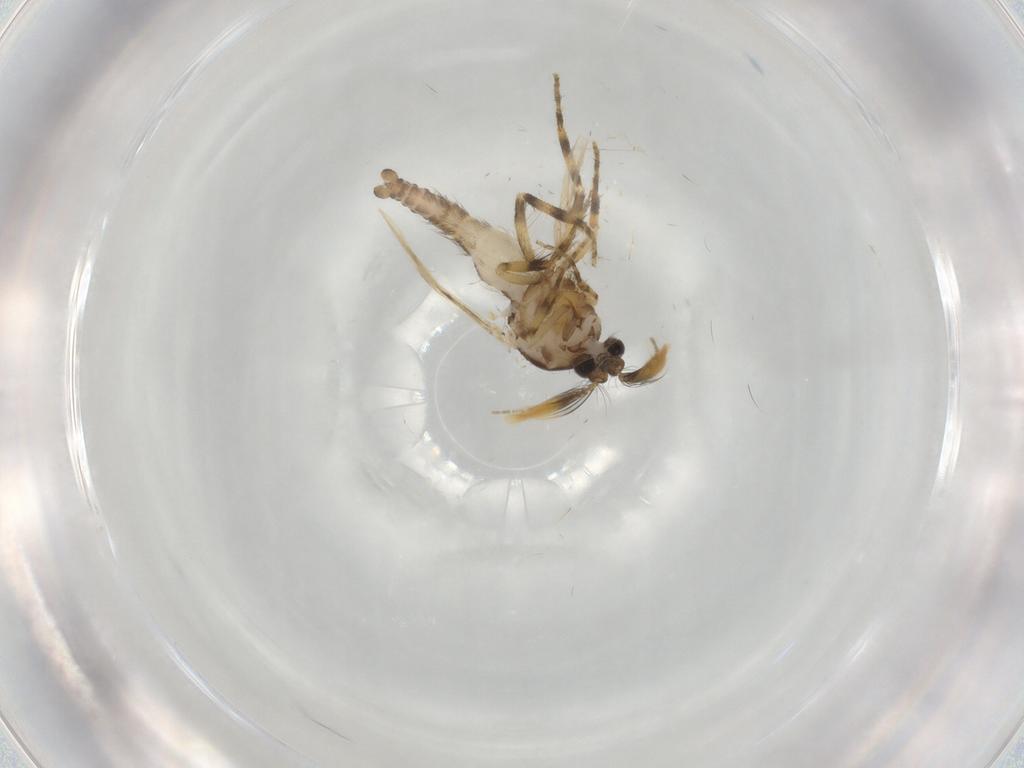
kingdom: Animalia
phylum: Arthropoda
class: Insecta
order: Diptera
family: Ceratopogonidae
